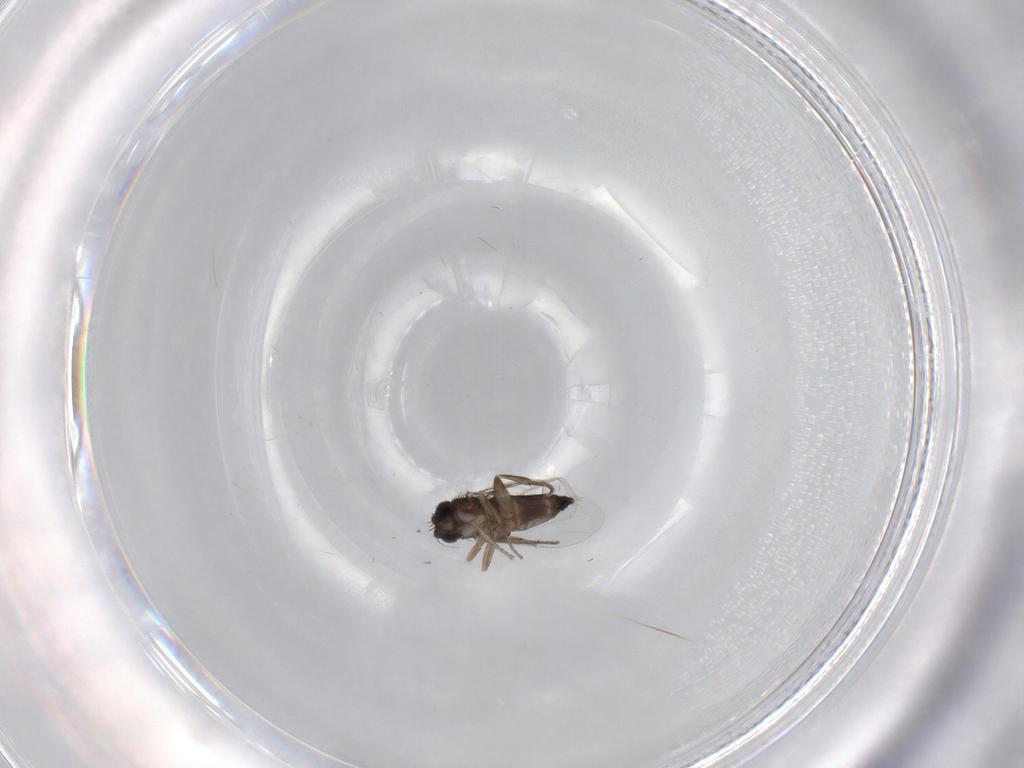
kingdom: Animalia
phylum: Arthropoda
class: Insecta
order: Diptera
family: Phoridae
